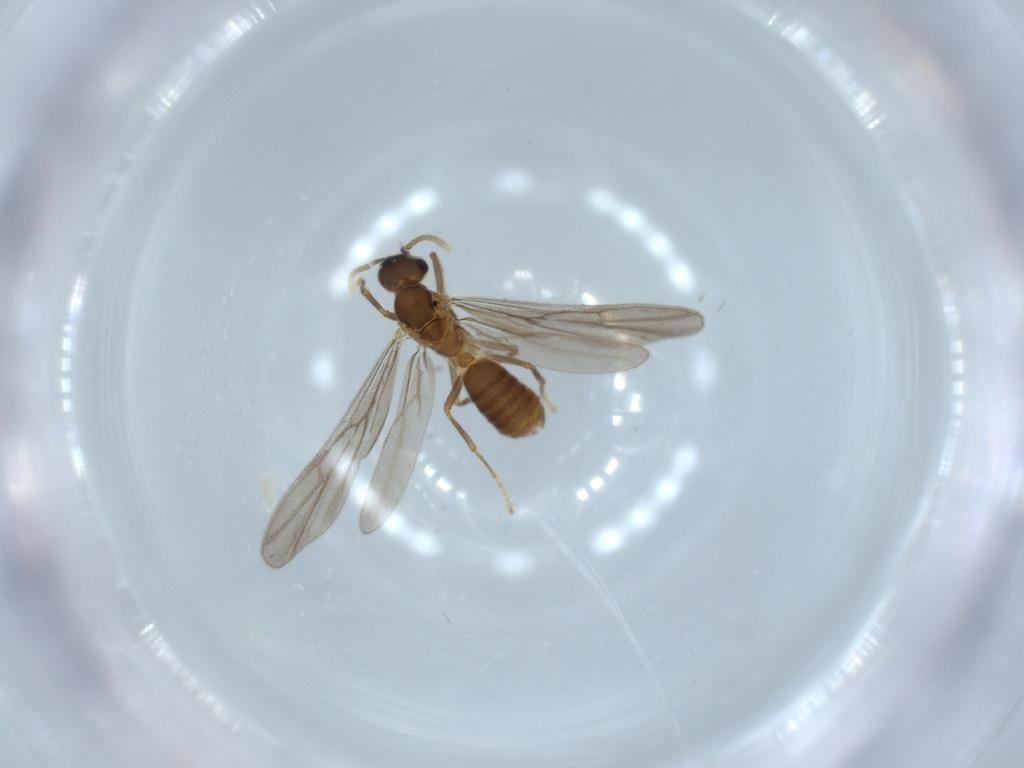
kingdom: Animalia
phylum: Arthropoda
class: Insecta
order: Hymenoptera
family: Formicidae
